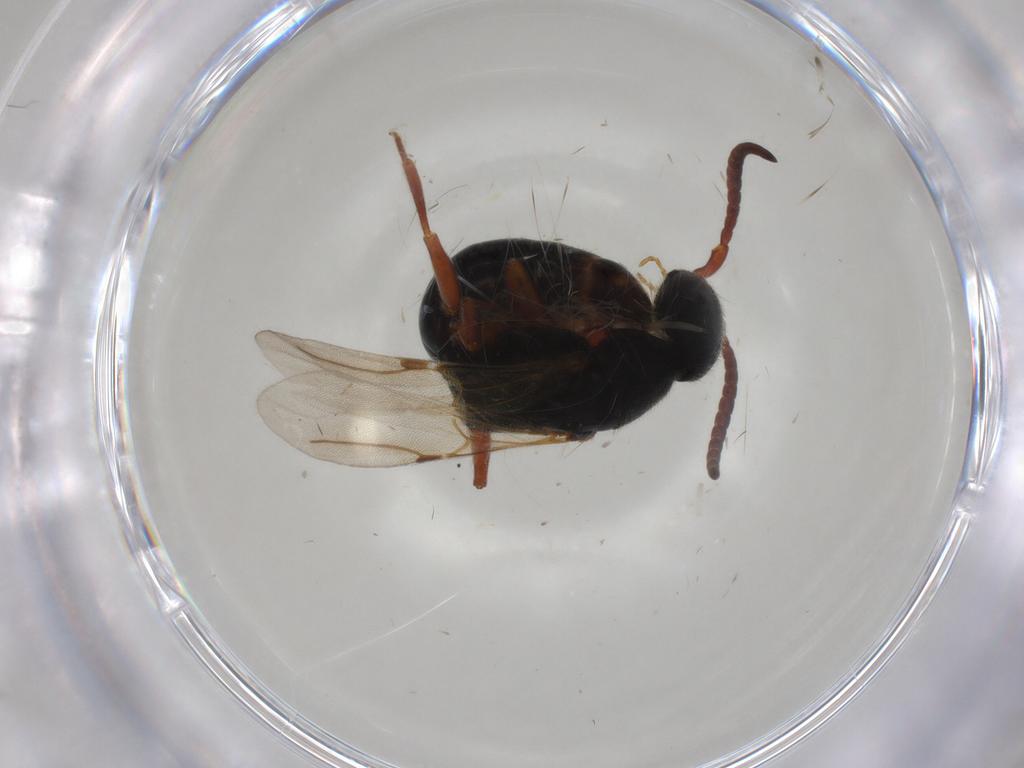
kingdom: Animalia
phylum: Arthropoda
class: Insecta
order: Hymenoptera
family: Bethylidae
